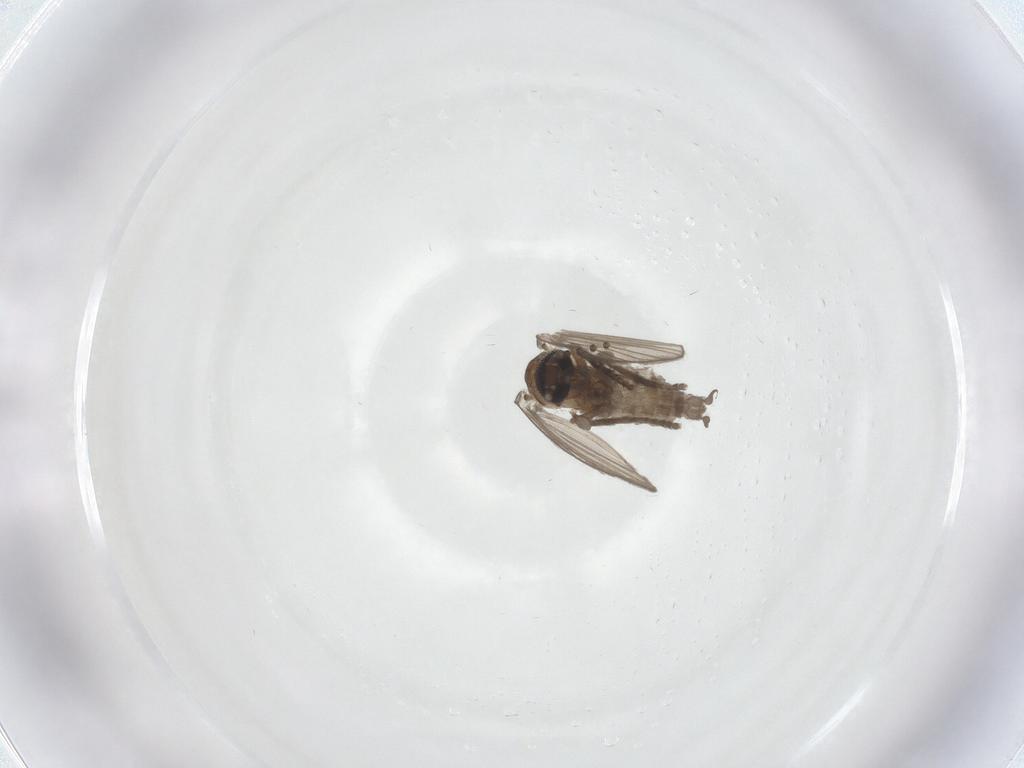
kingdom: Animalia
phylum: Arthropoda
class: Insecta
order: Diptera
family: Psychodidae
